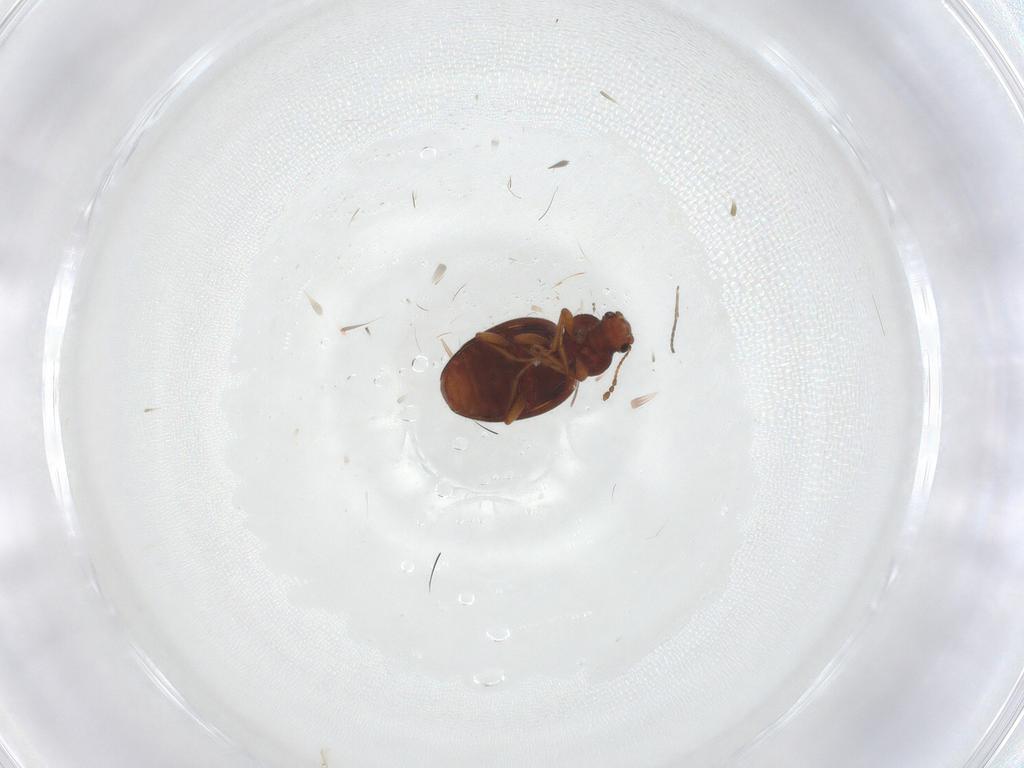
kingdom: Animalia
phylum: Arthropoda
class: Insecta
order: Coleoptera
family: Latridiidae
